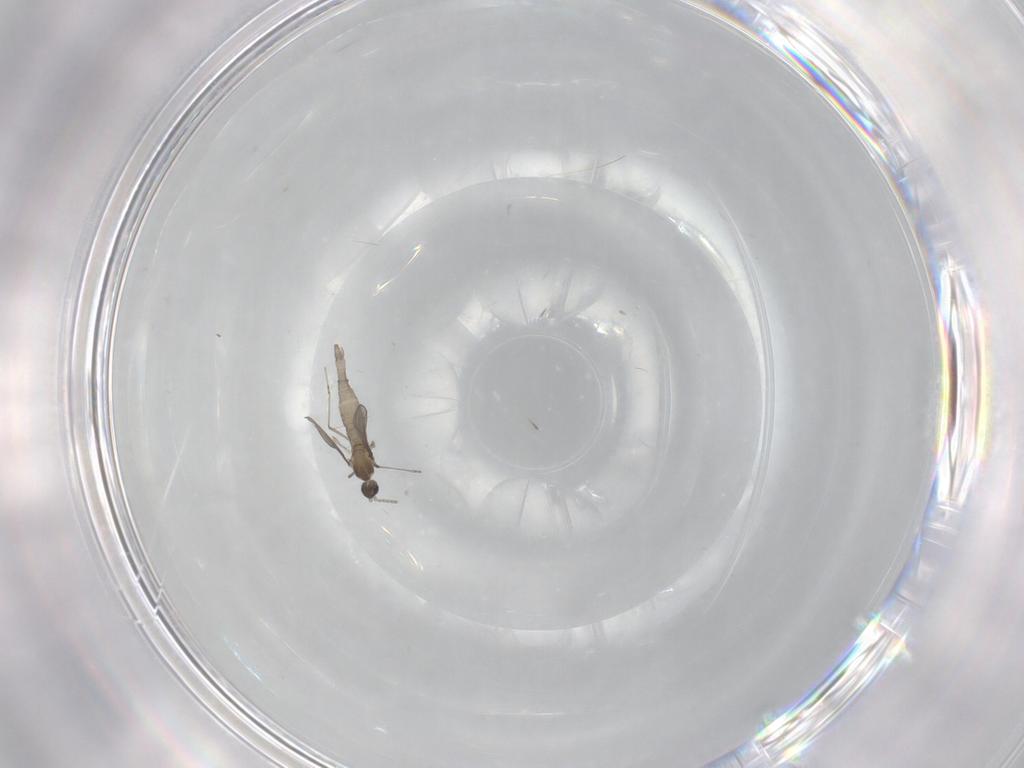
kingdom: Animalia
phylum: Arthropoda
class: Insecta
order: Diptera
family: Cecidomyiidae
